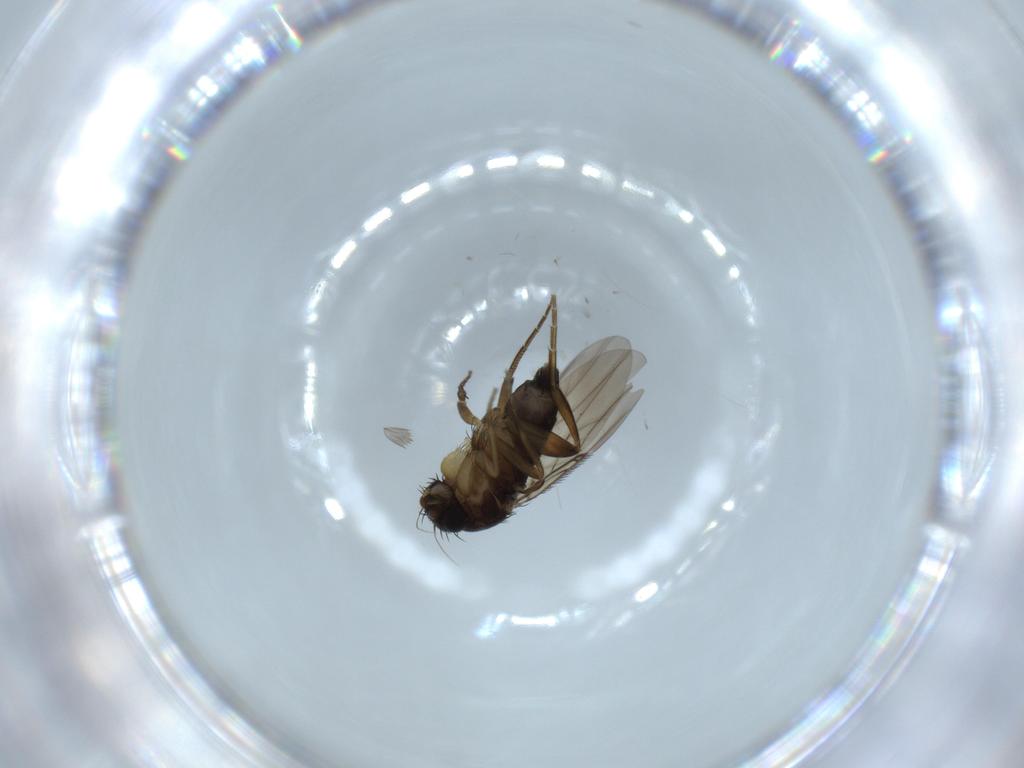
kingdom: Animalia
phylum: Arthropoda
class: Insecta
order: Diptera
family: Phoridae
